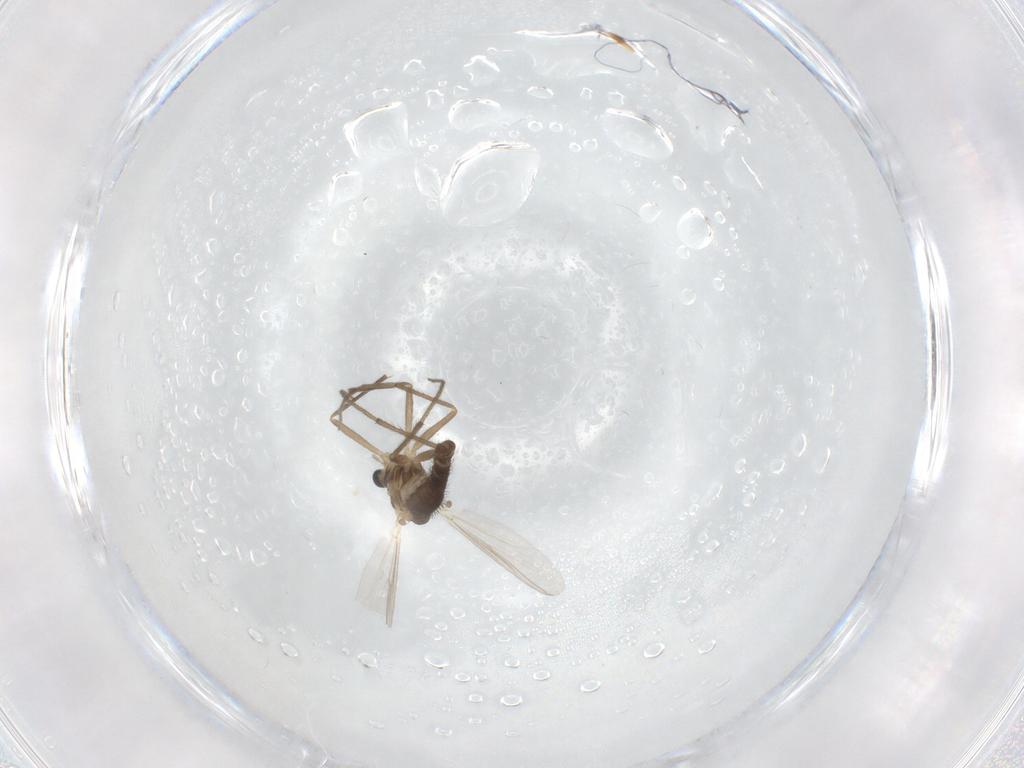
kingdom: Animalia
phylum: Arthropoda
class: Insecta
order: Diptera
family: Chironomidae
